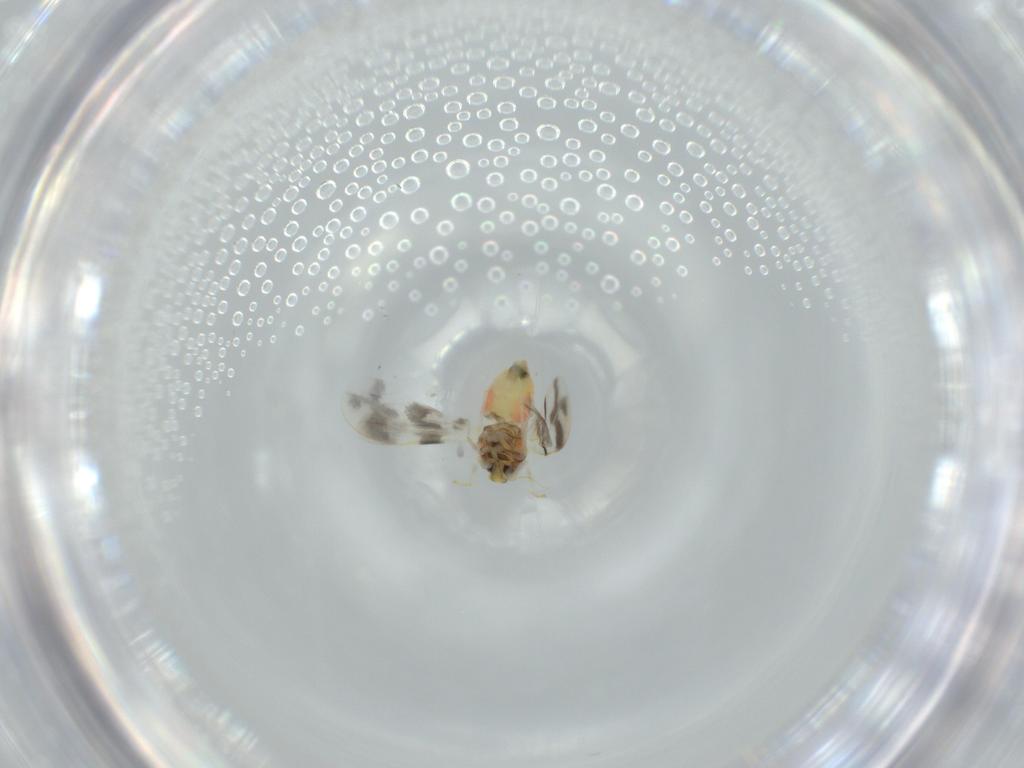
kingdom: Animalia
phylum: Arthropoda
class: Insecta
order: Hemiptera
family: Aleyrodidae
